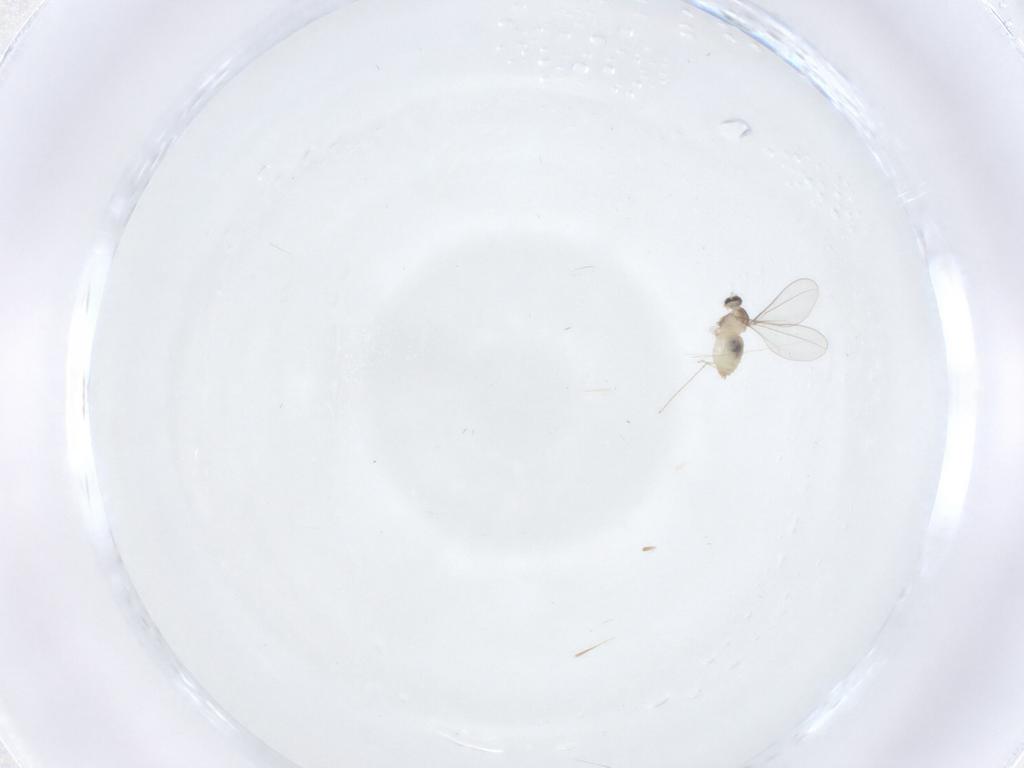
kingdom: Animalia
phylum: Arthropoda
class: Insecta
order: Diptera
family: Cecidomyiidae
